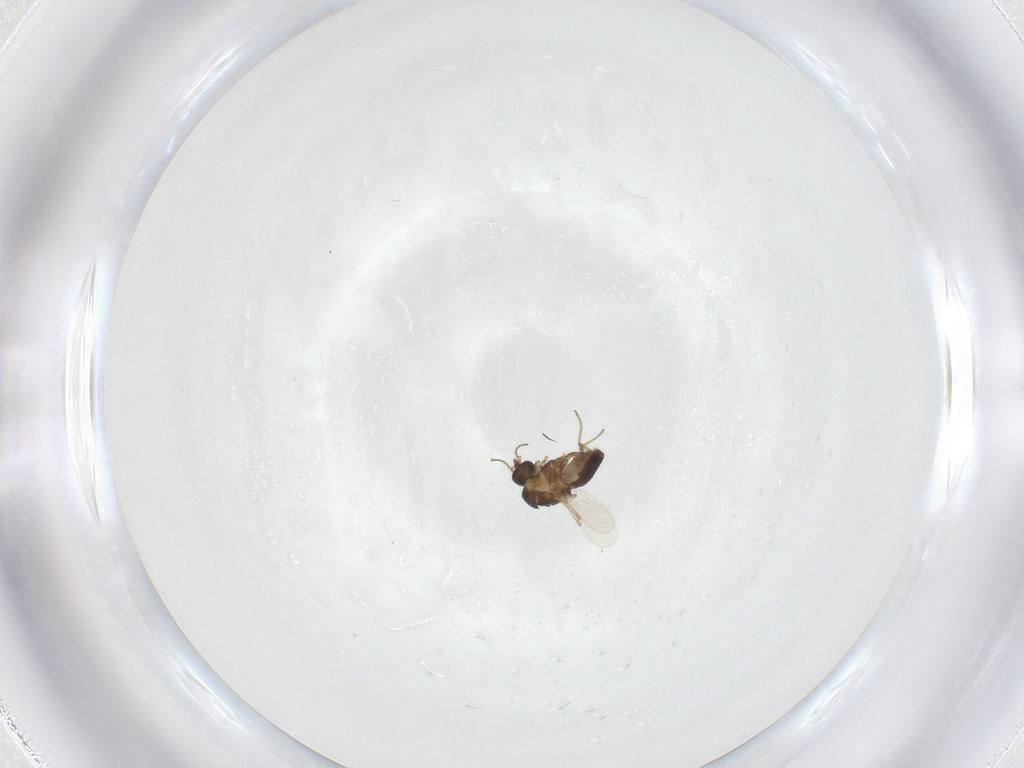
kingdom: Animalia
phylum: Arthropoda
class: Insecta
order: Diptera
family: Ceratopogonidae
